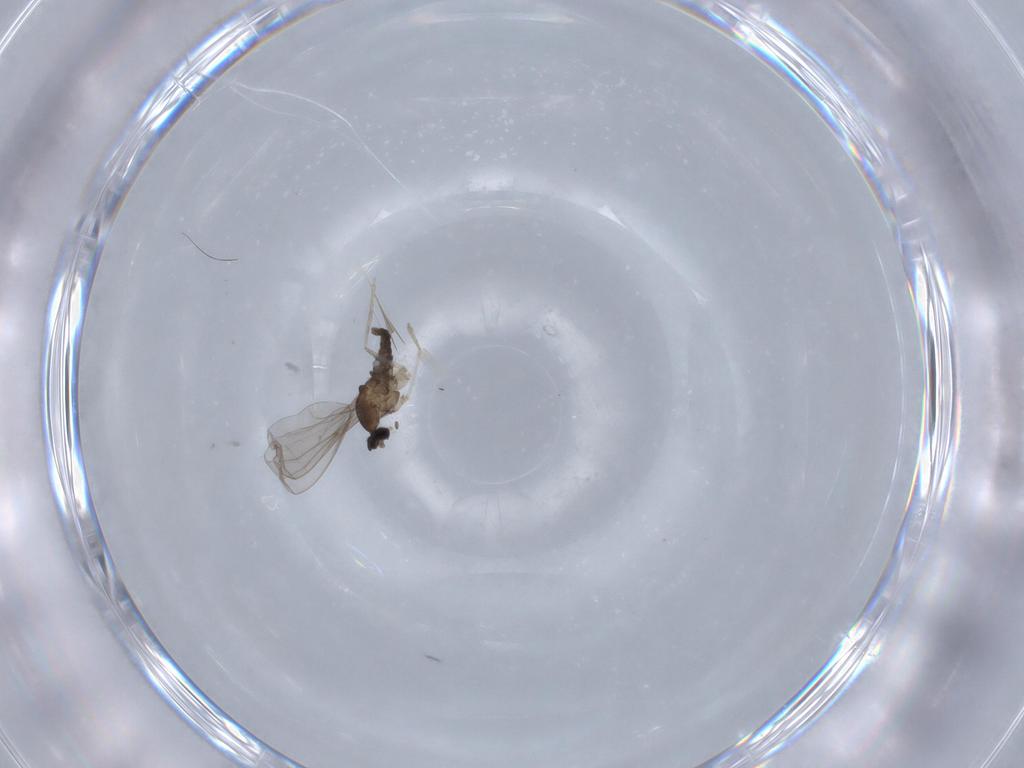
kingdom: Animalia
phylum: Arthropoda
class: Insecta
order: Diptera
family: Cecidomyiidae
